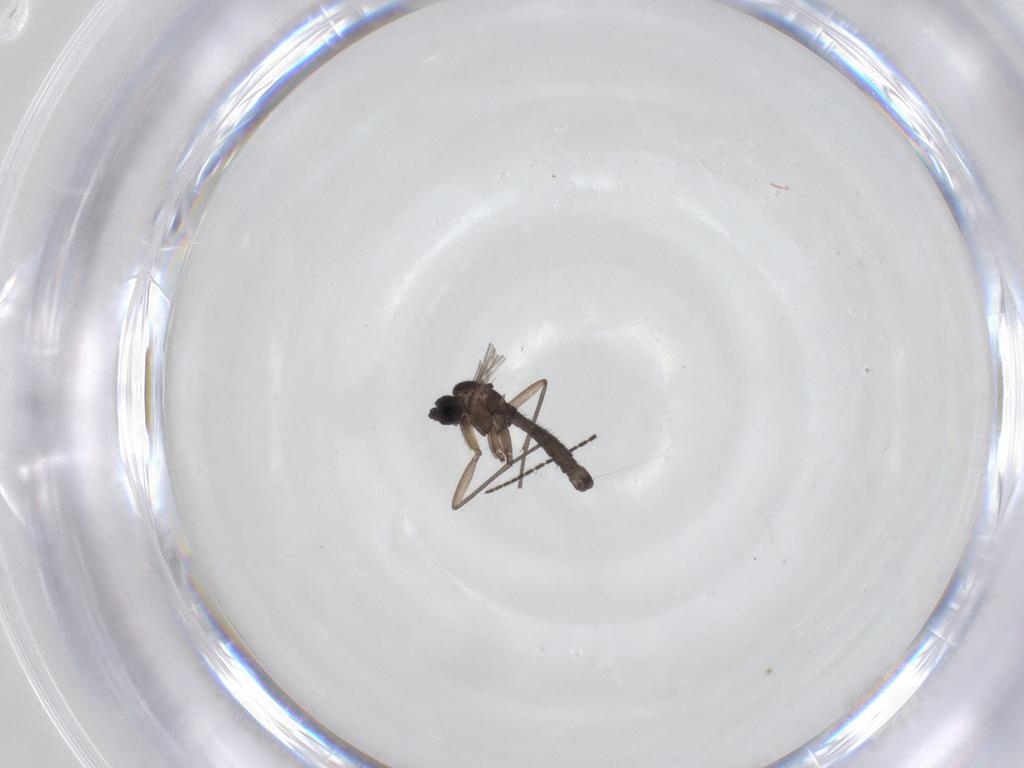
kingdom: Animalia
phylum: Arthropoda
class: Insecta
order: Diptera
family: Sciaridae
